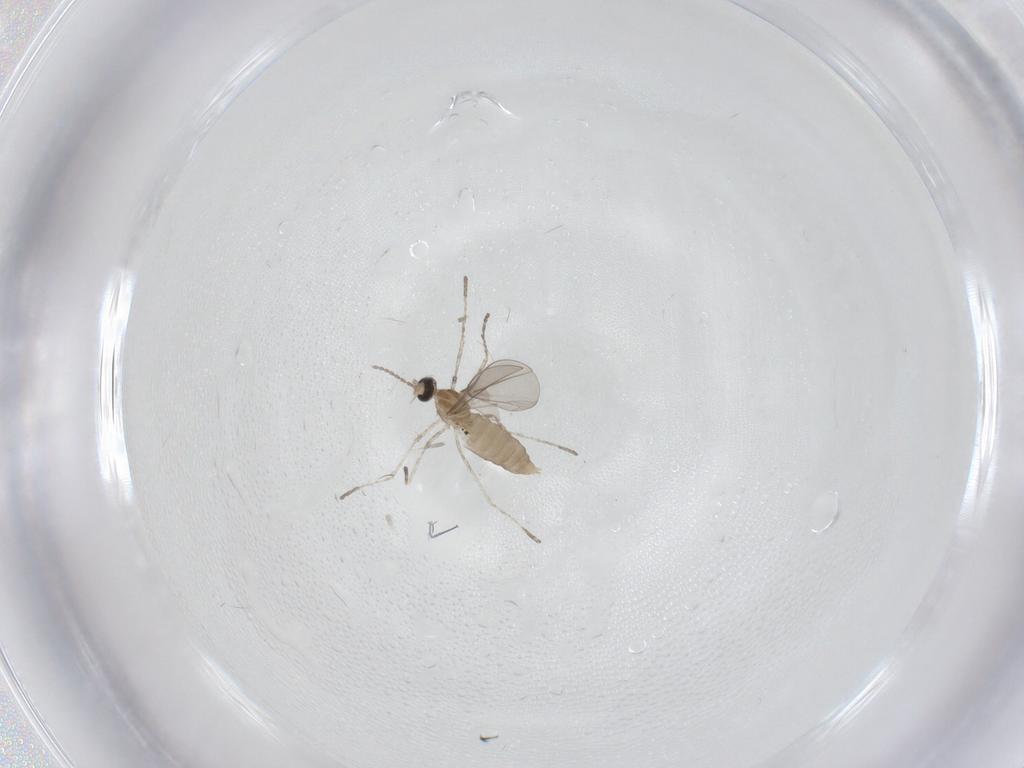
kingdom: Animalia
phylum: Arthropoda
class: Insecta
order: Diptera
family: Cecidomyiidae
